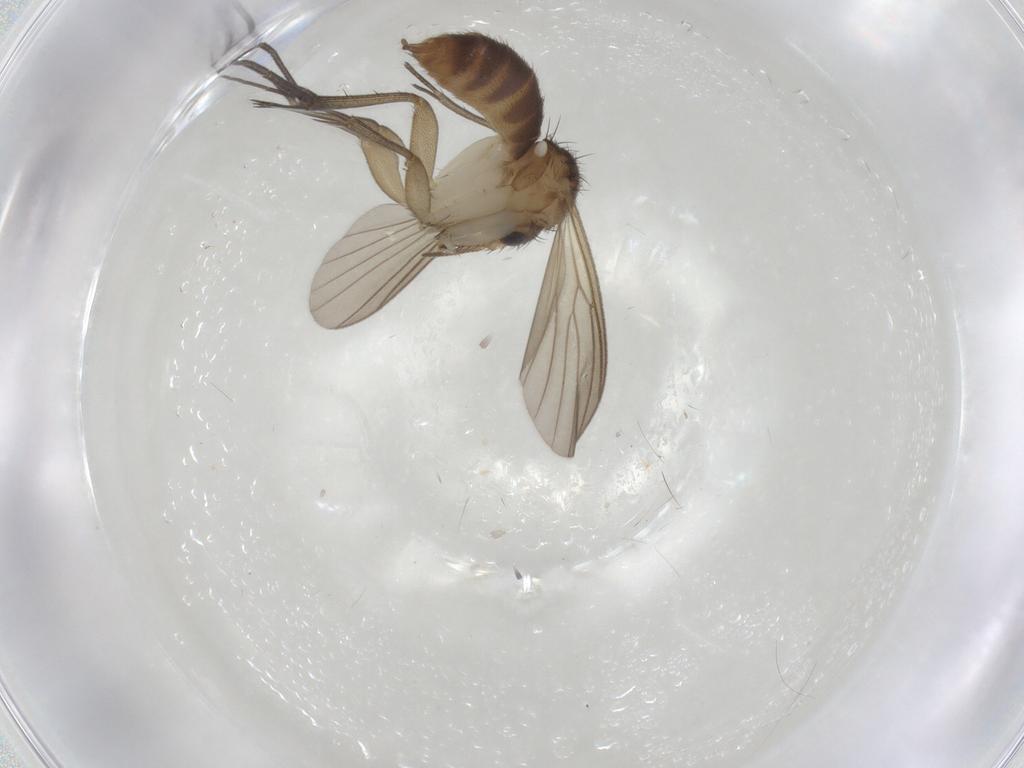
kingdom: Animalia
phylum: Arthropoda
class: Insecta
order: Diptera
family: Mycetophilidae
